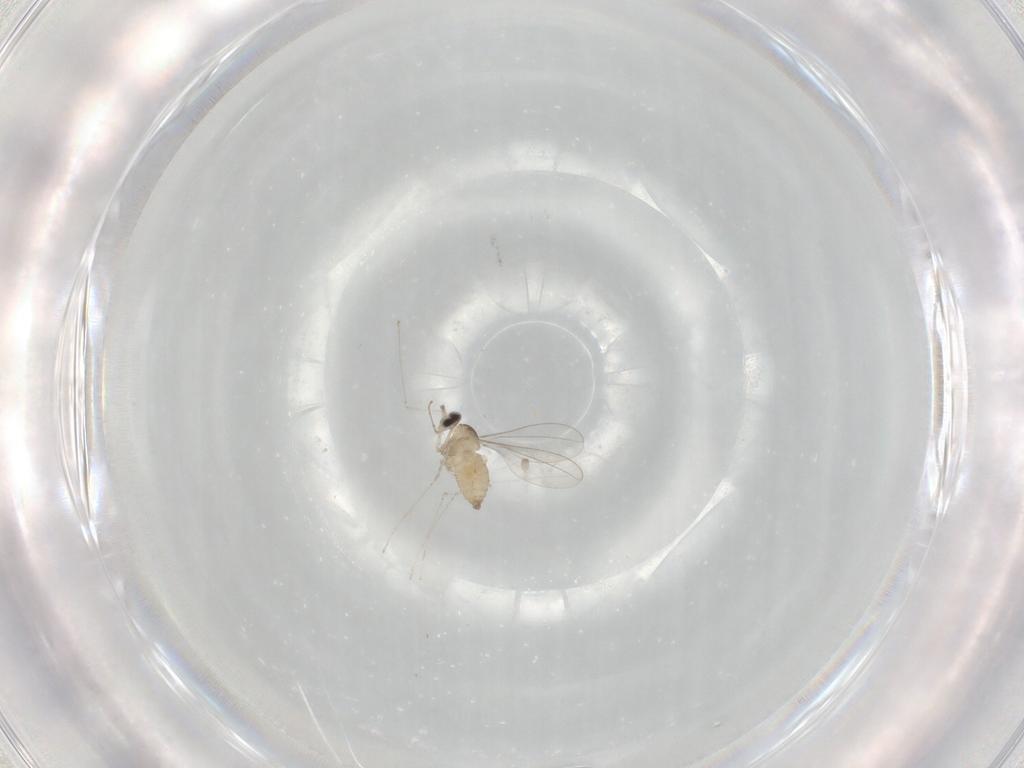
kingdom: Animalia
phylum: Arthropoda
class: Insecta
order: Diptera
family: Cecidomyiidae
